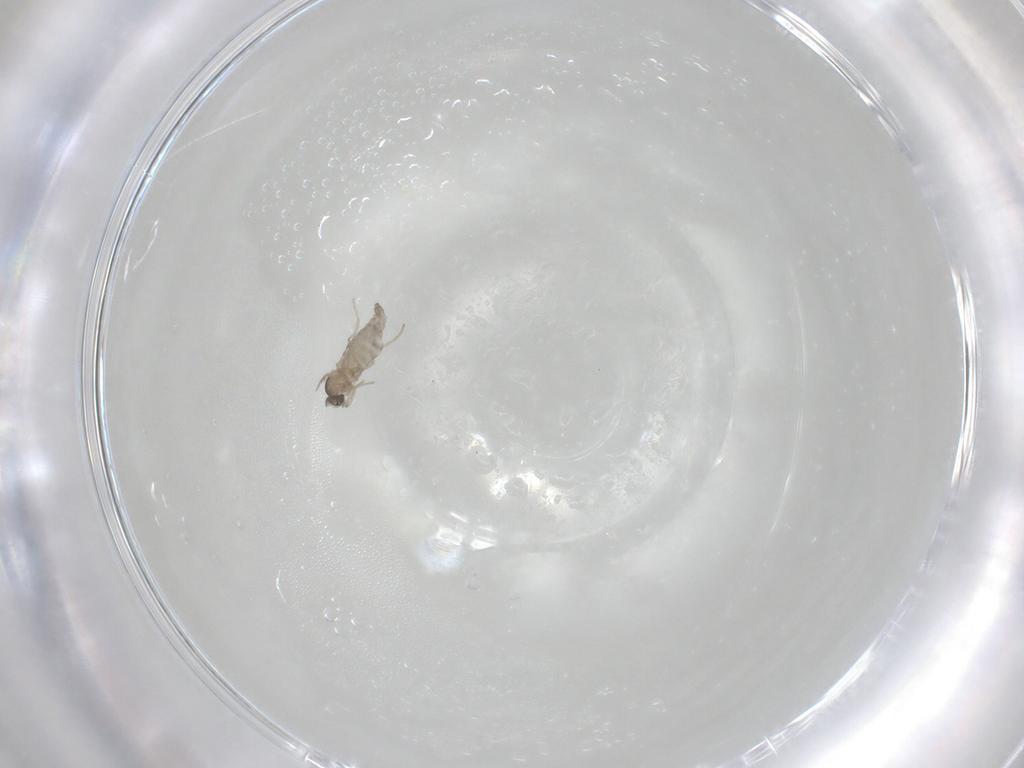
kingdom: Animalia
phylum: Arthropoda
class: Insecta
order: Diptera
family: Cecidomyiidae
